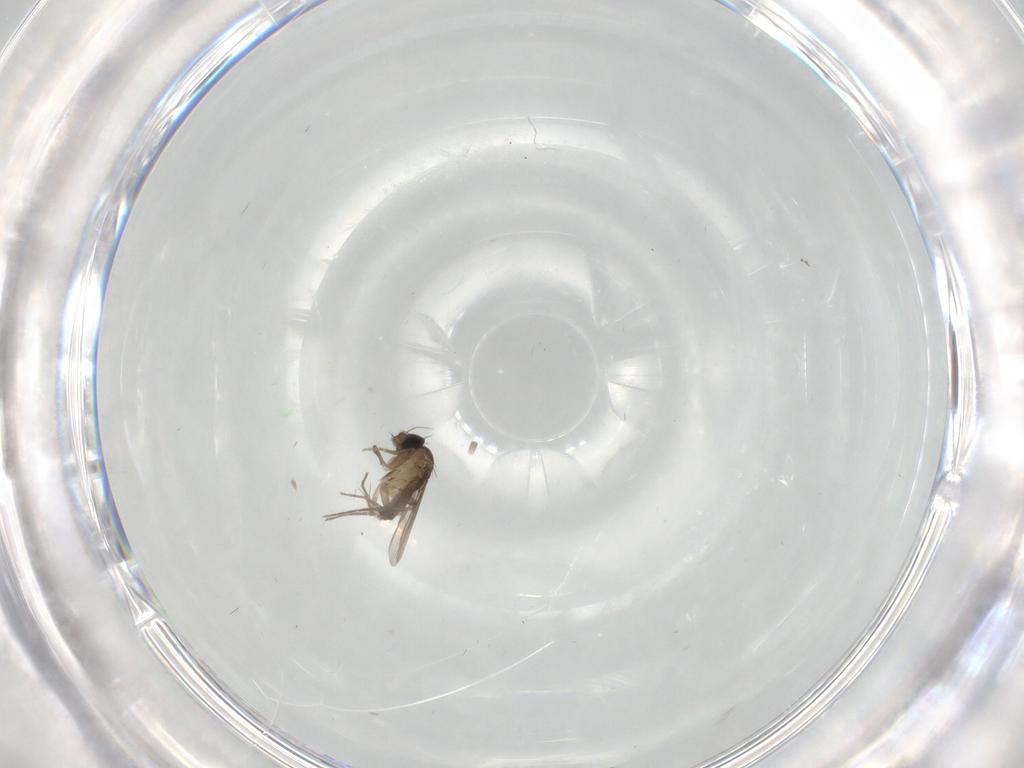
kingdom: Animalia
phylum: Arthropoda
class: Insecta
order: Diptera
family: Phoridae
